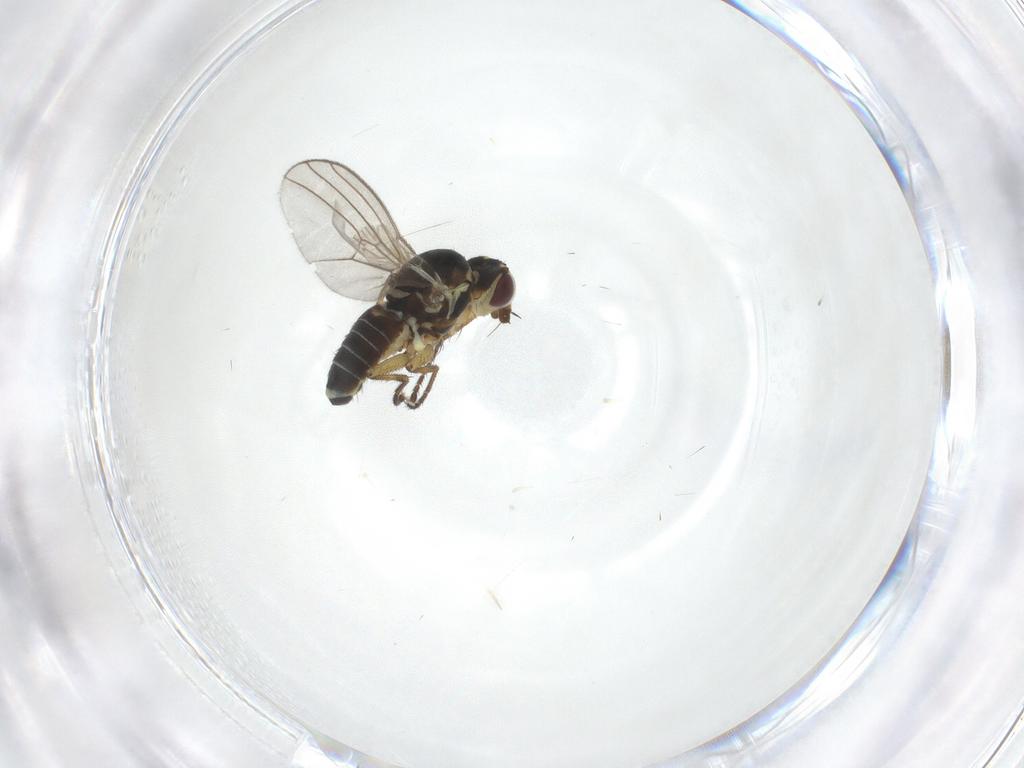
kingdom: Animalia
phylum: Arthropoda
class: Insecta
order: Diptera
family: Agromyzidae
